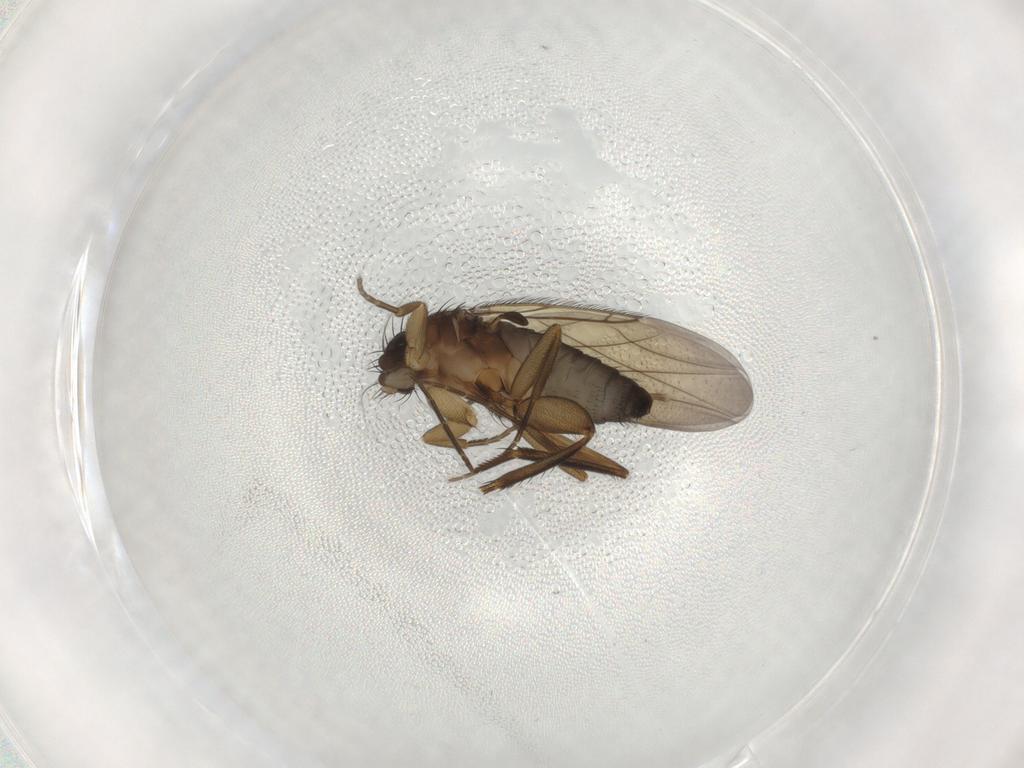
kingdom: Animalia
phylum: Arthropoda
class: Insecta
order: Diptera
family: Phoridae
